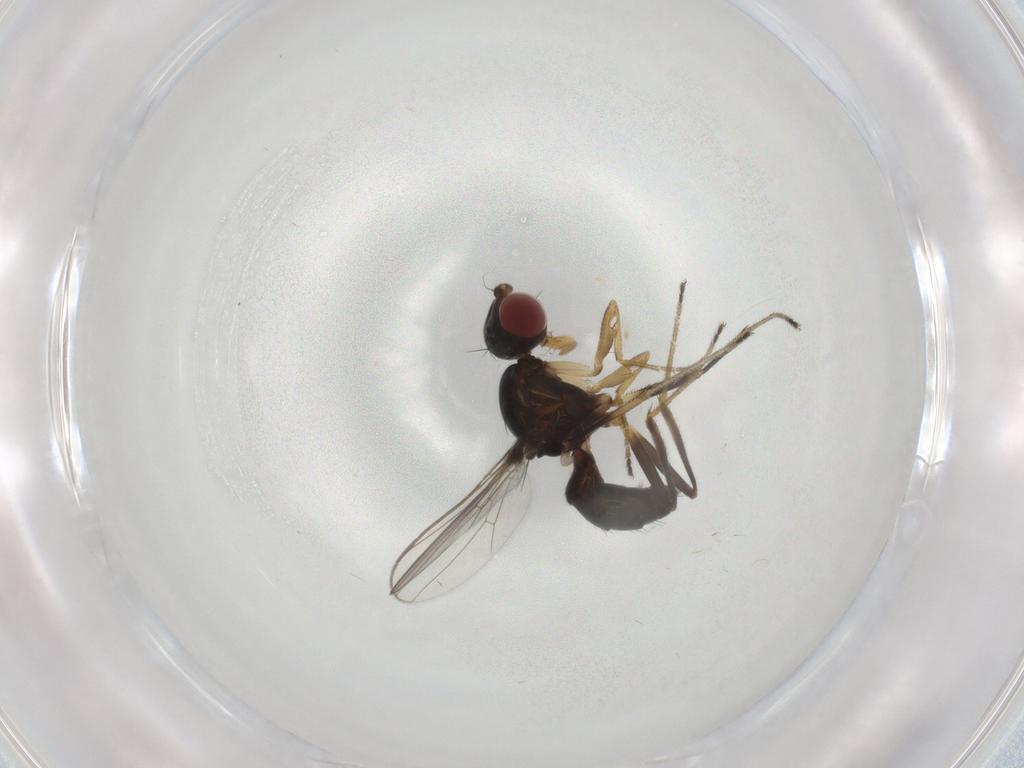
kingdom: Animalia
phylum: Arthropoda
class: Insecta
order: Diptera
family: Sepsidae
